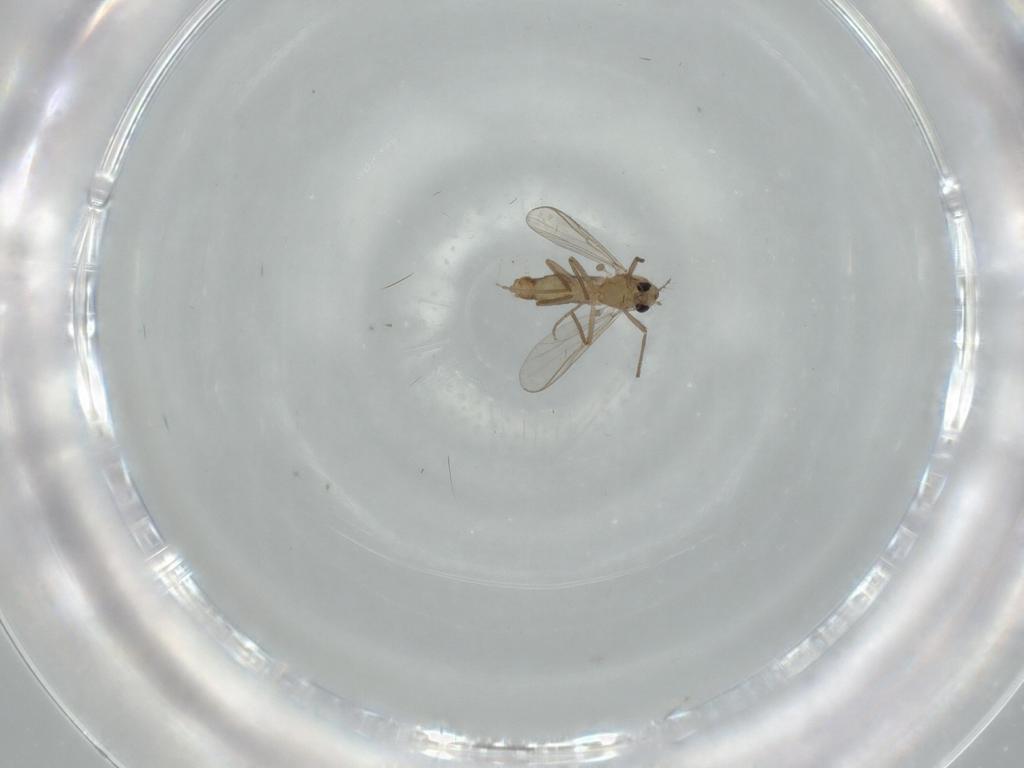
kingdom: Animalia
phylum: Arthropoda
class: Insecta
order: Diptera
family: Chironomidae
